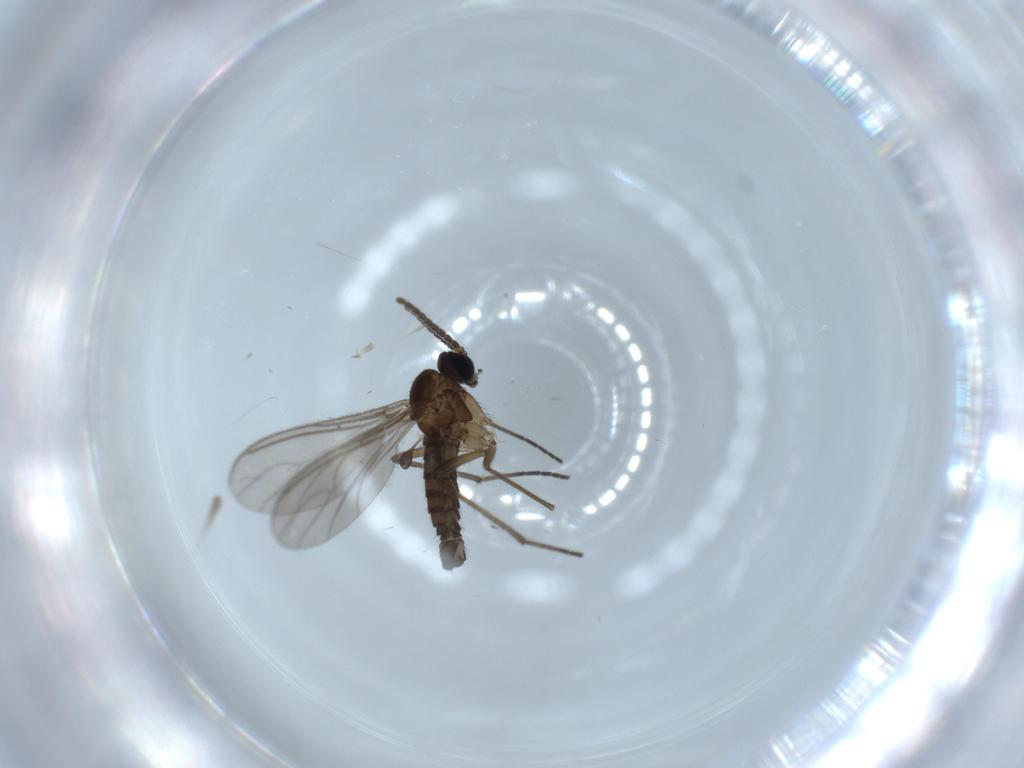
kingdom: Animalia
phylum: Arthropoda
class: Insecta
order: Diptera
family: Sciaridae
